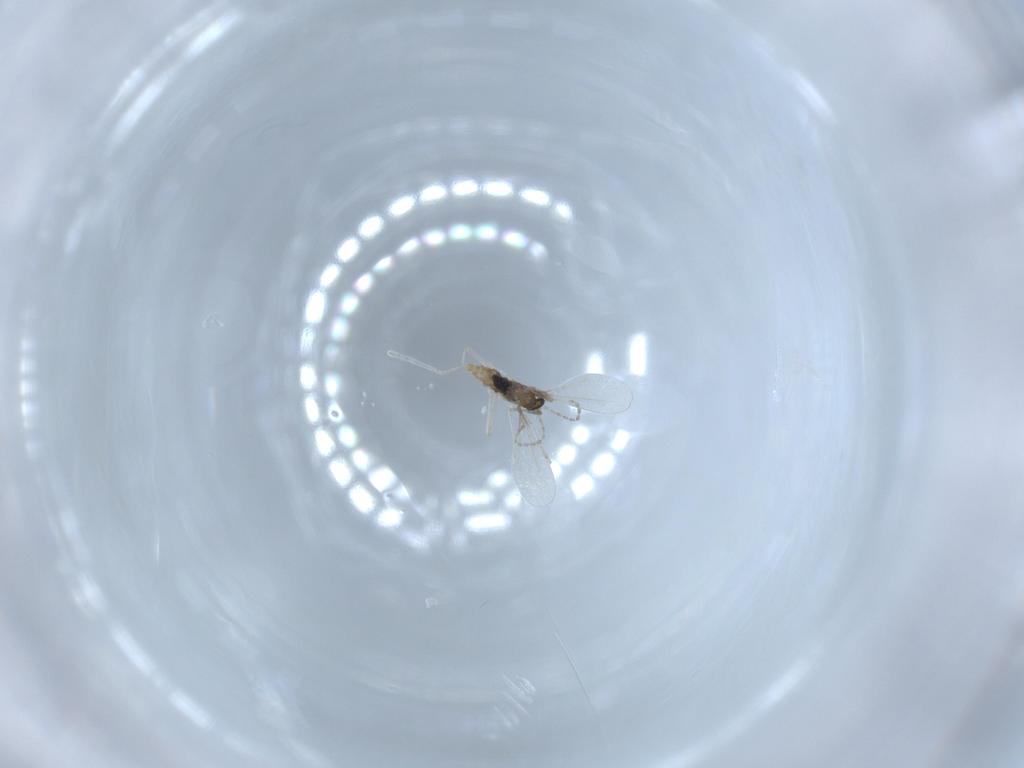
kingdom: Animalia
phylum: Arthropoda
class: Insecta
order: Diptera
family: Cecidomyiidae
